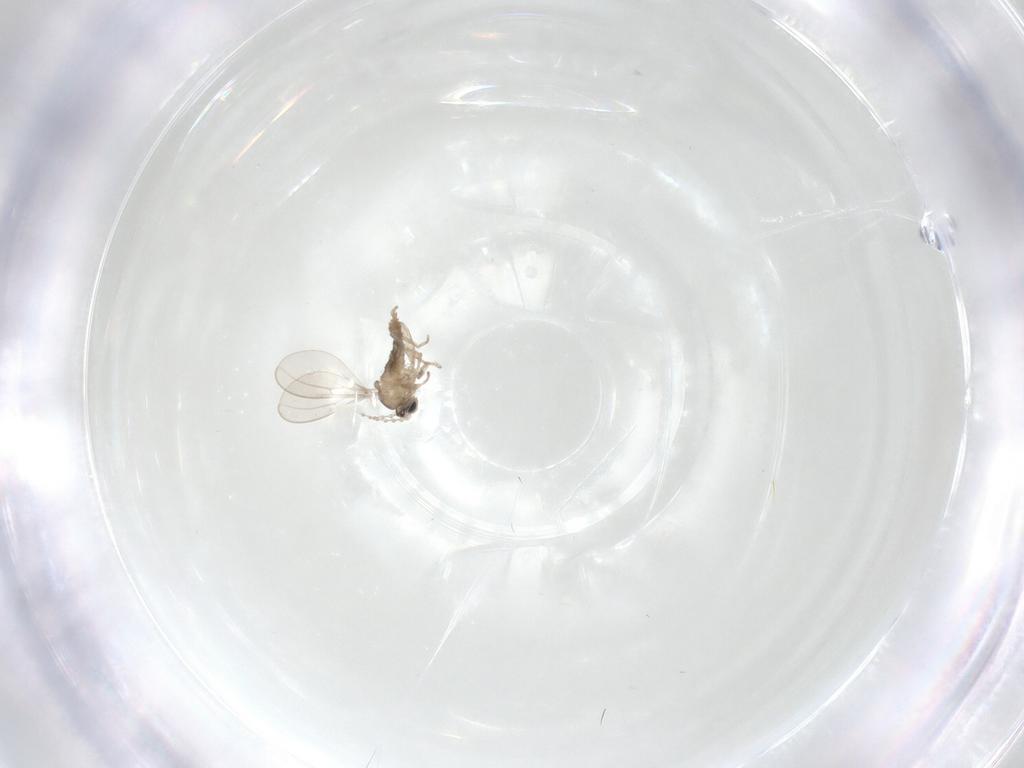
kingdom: Animalia
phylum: Arthropoda
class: Insecta
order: Diptera
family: Cecidomyiidae
